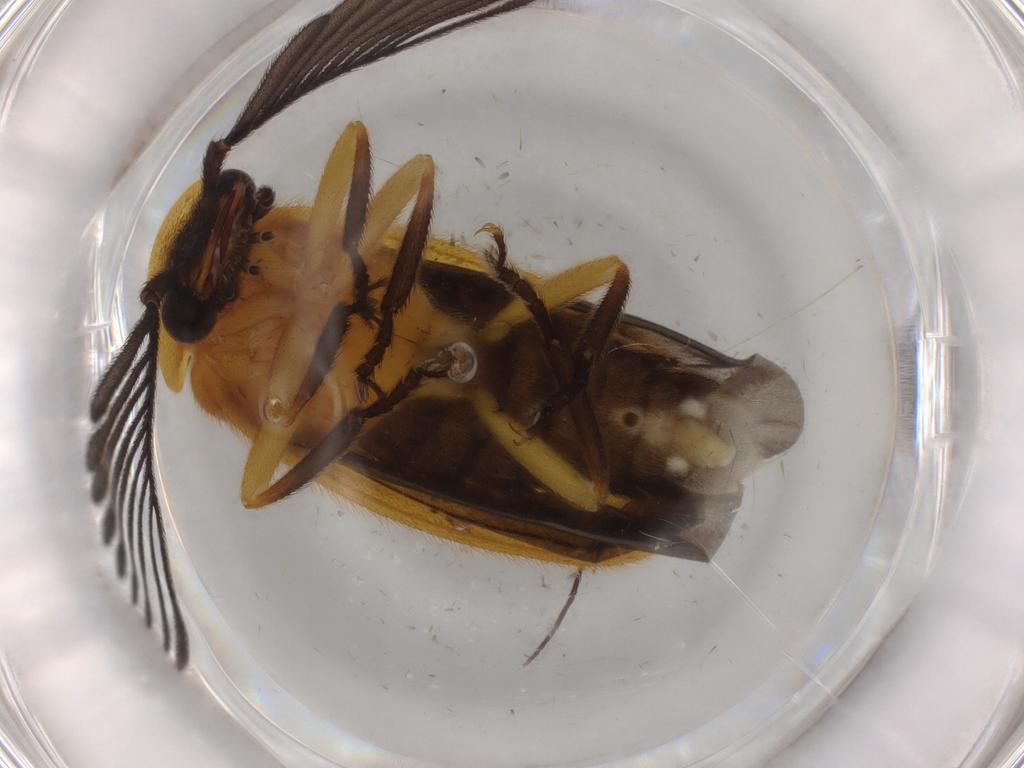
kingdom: Animalia
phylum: Arthropoda
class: Insecta
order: Coleoptera
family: Lampyridae
